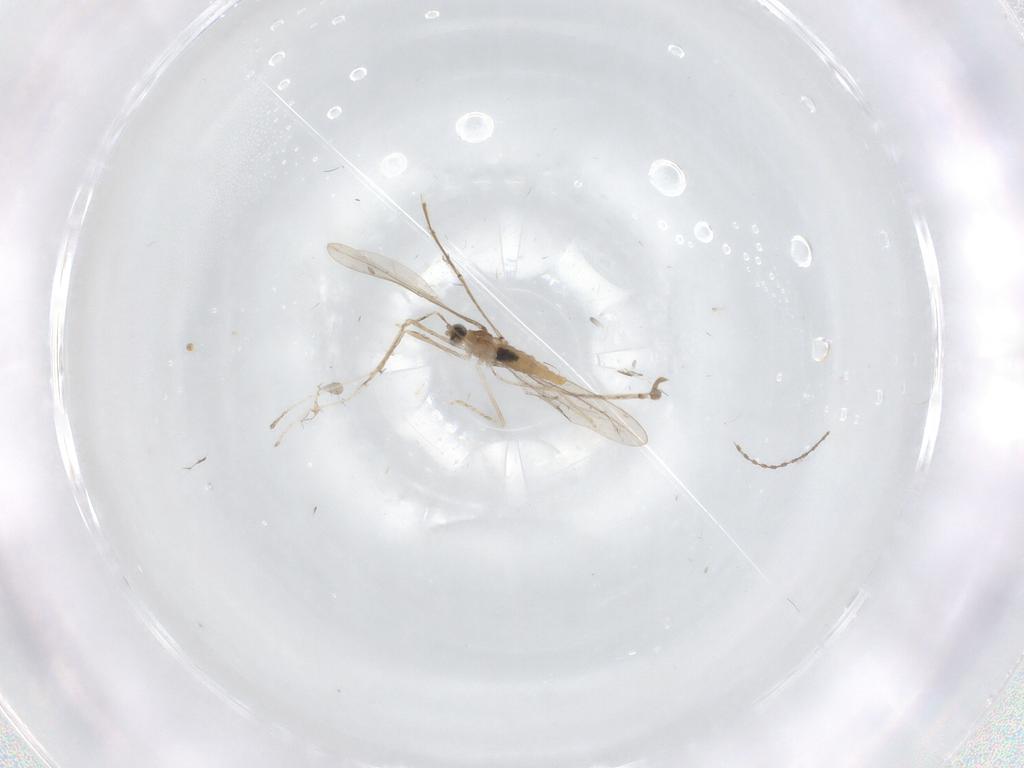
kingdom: Animalia
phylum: Arthropoda
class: Insecta
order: Diptera
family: Cecidomyiidae
